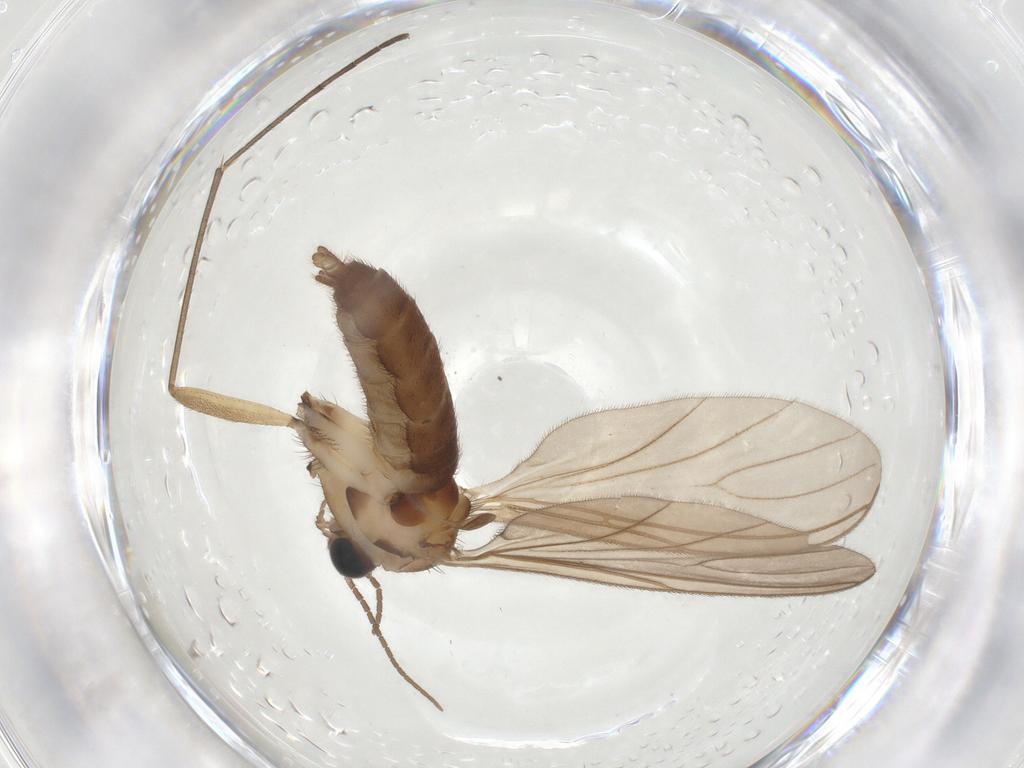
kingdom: Animalia
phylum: Arthropoda
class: Insecta
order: Diptera
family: Sciaridae
